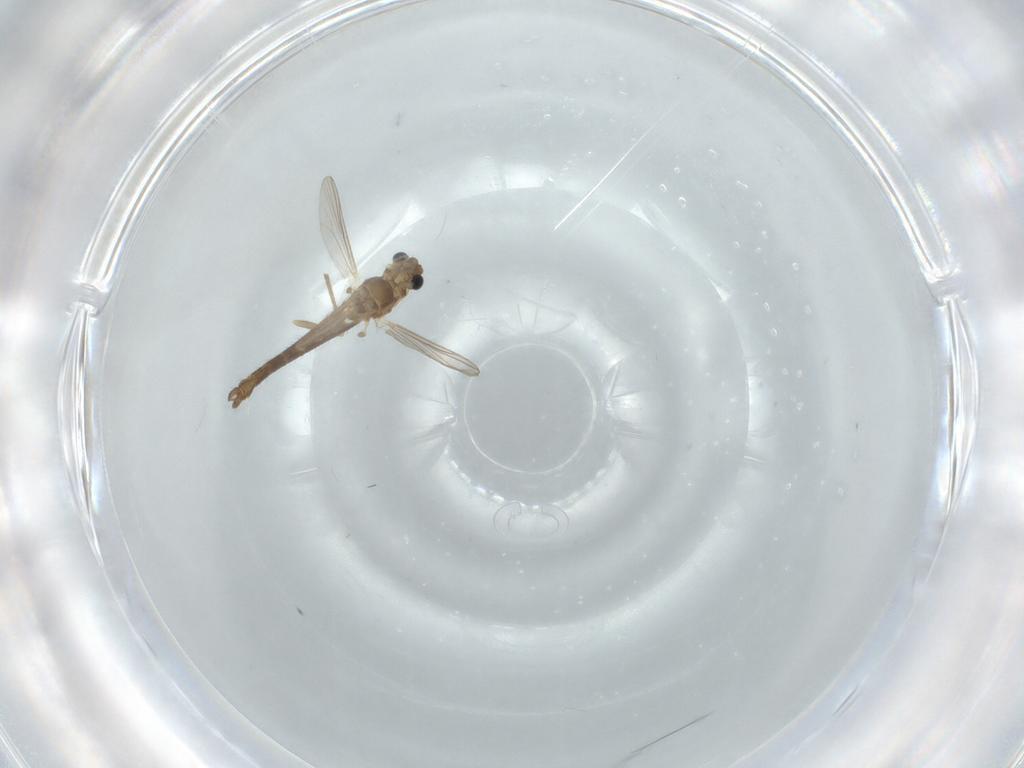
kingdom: Animalia
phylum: Arthropoda
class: Insecta
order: Diptera
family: Chironomidae
